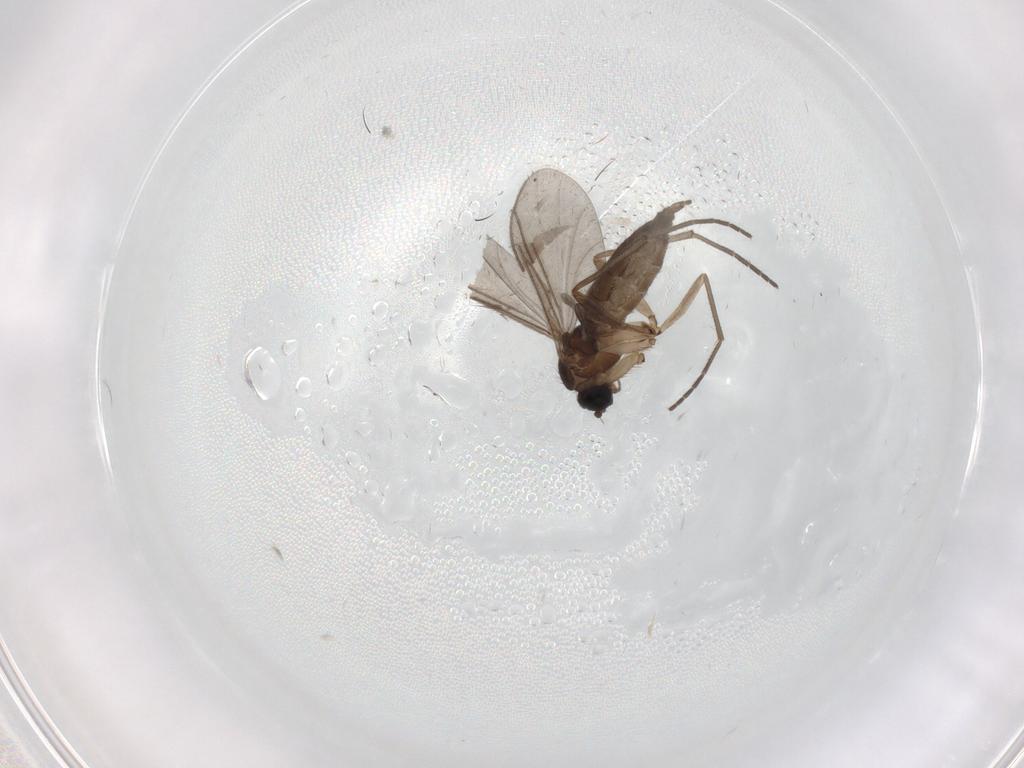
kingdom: Animalia
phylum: Arthropoda
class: Insecta
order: Diptera
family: Sciaridae
